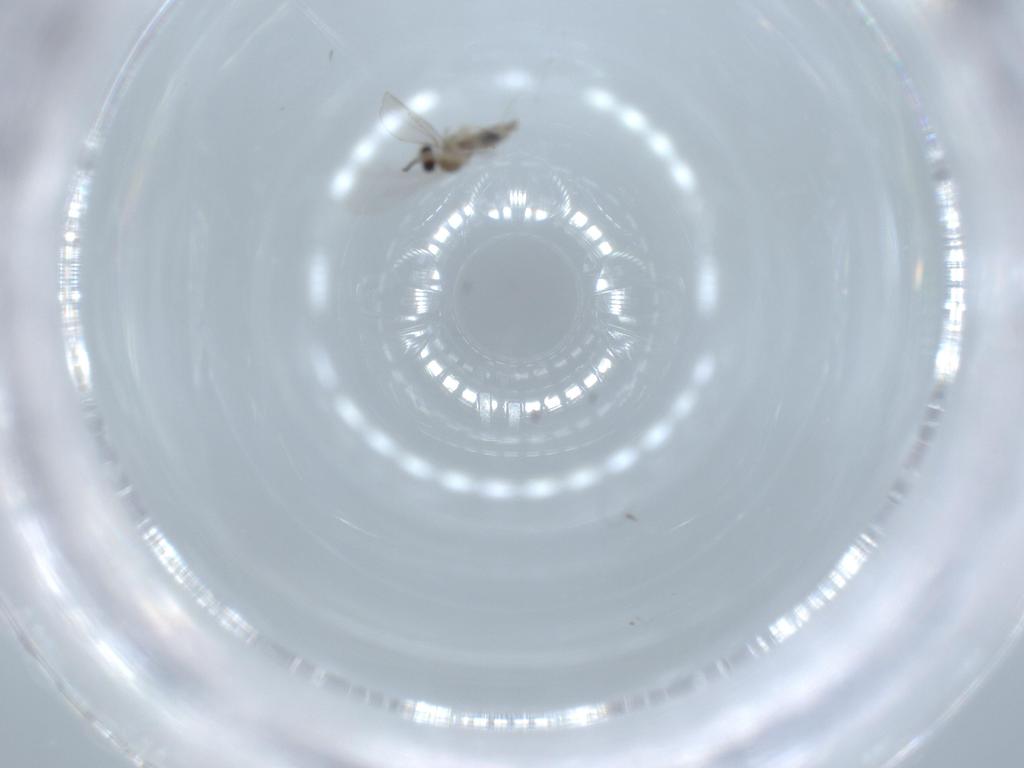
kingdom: Animalia
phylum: Arthropoda
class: Insecta
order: Diptera
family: Cecidomyiidae
